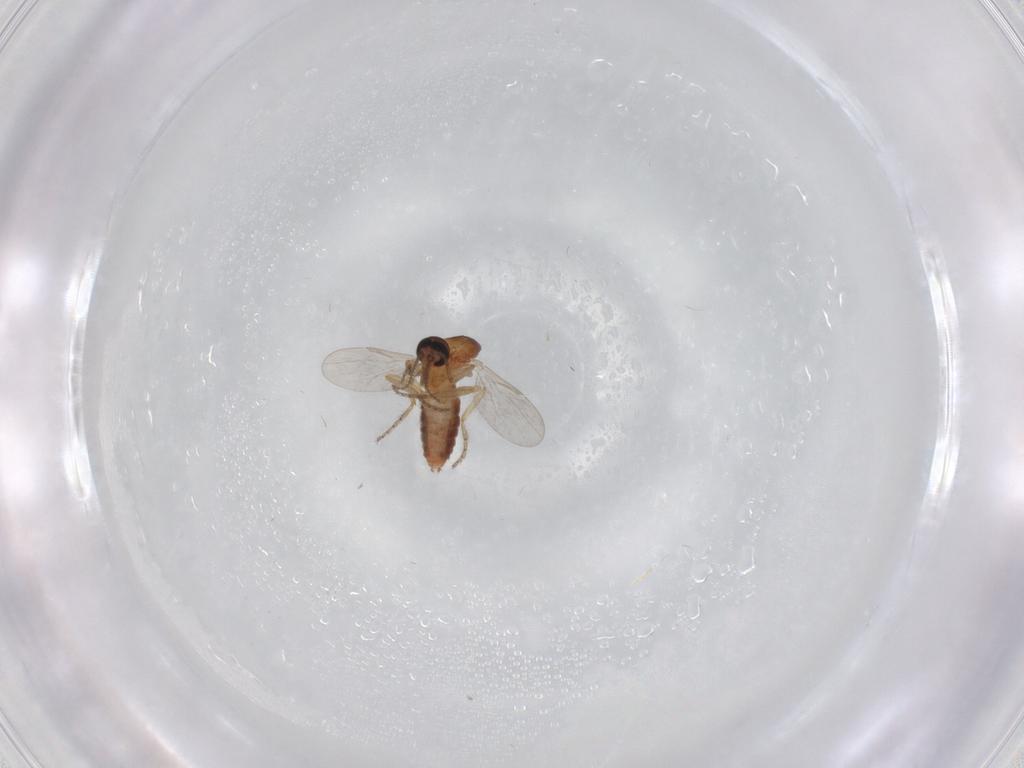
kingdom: Animalia
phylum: Arthropoda
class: Insecta
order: Diptera
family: Ceratopogonidae
